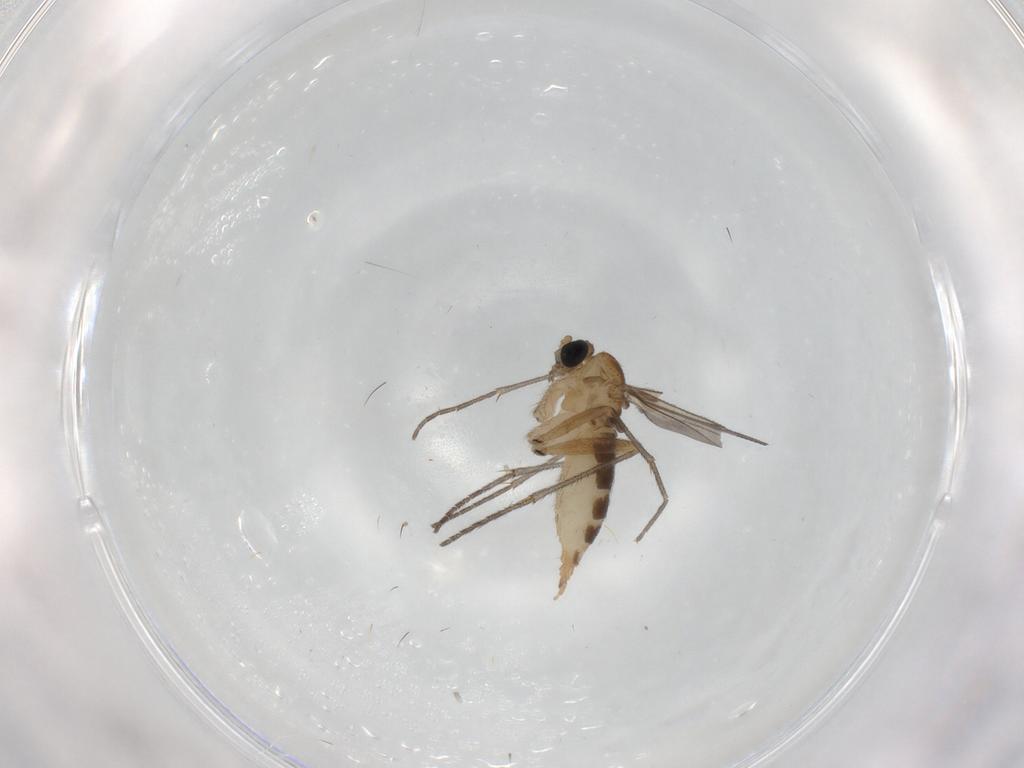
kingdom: Animalia
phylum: Arthropoda
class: Insecta
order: Diptera
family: Sciaridae
